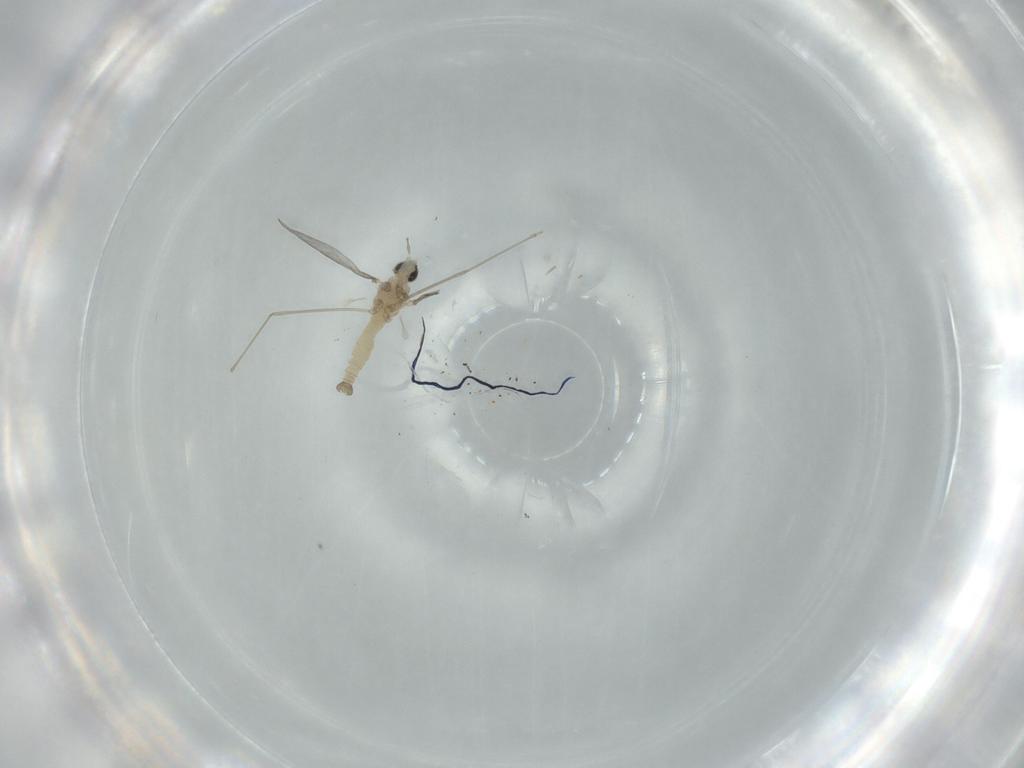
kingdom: Animalia
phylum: Arthropoda
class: Insecta
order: Diptera
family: Cecidomyiidae
